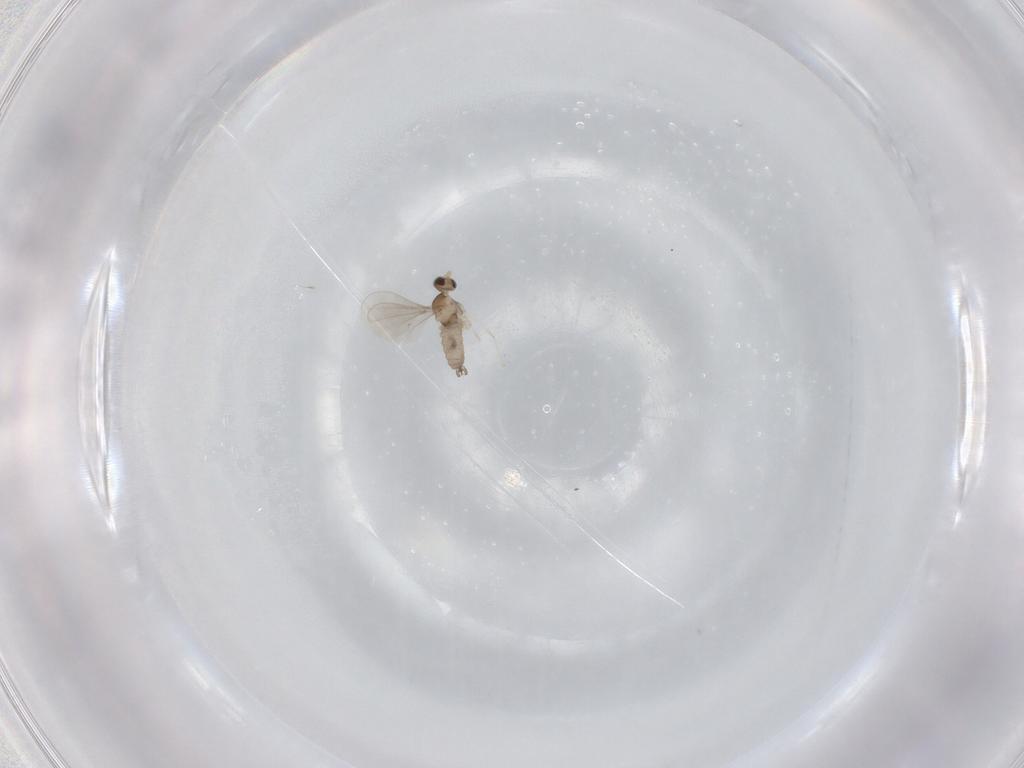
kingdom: Animalia
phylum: Arthropoda
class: Insecta
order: Diptera
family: Cecidomyiidae
